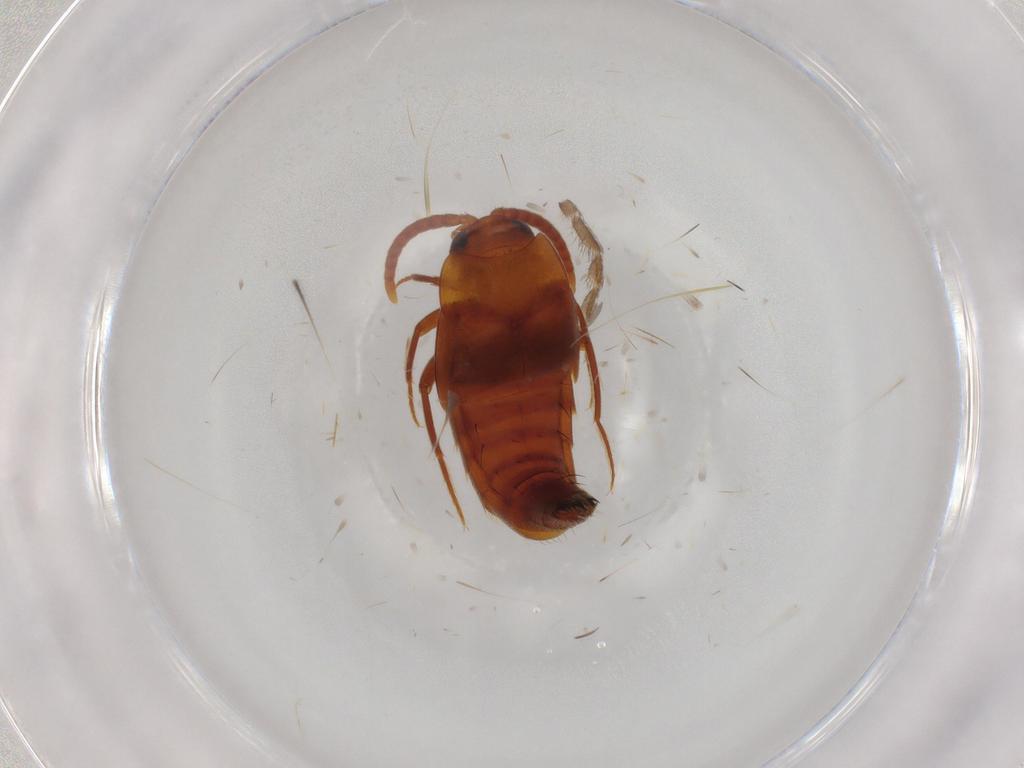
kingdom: Animalia
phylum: Arthropoda
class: Insecta
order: Coleoptera
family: Staphylinidae
